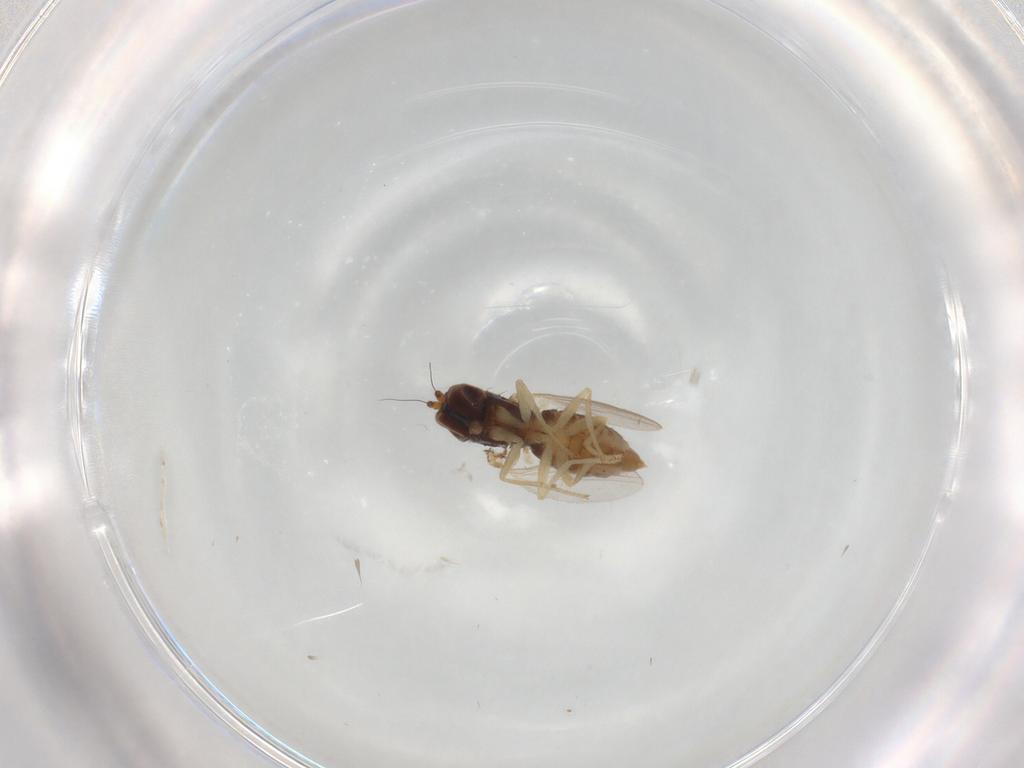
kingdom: Animalia
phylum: Arthropoda
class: Insecta
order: Diptera
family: Dolichopodidae
